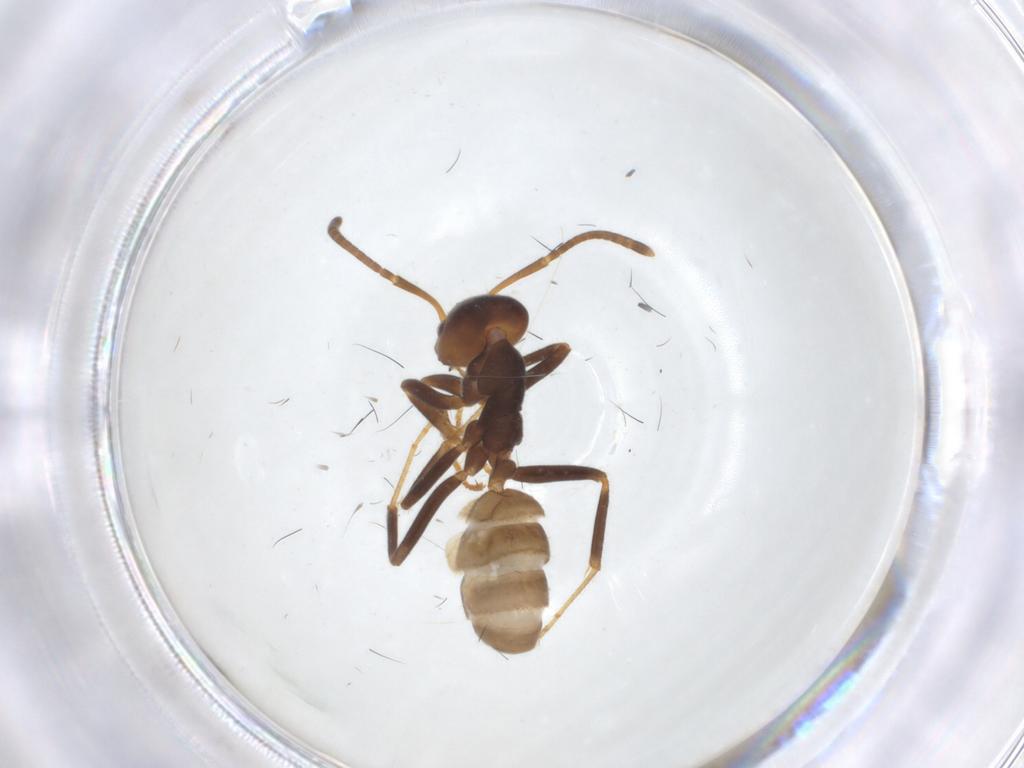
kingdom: Animalia
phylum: Arthropoda
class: Insecta
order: Hymenoptera
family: Formicidae
